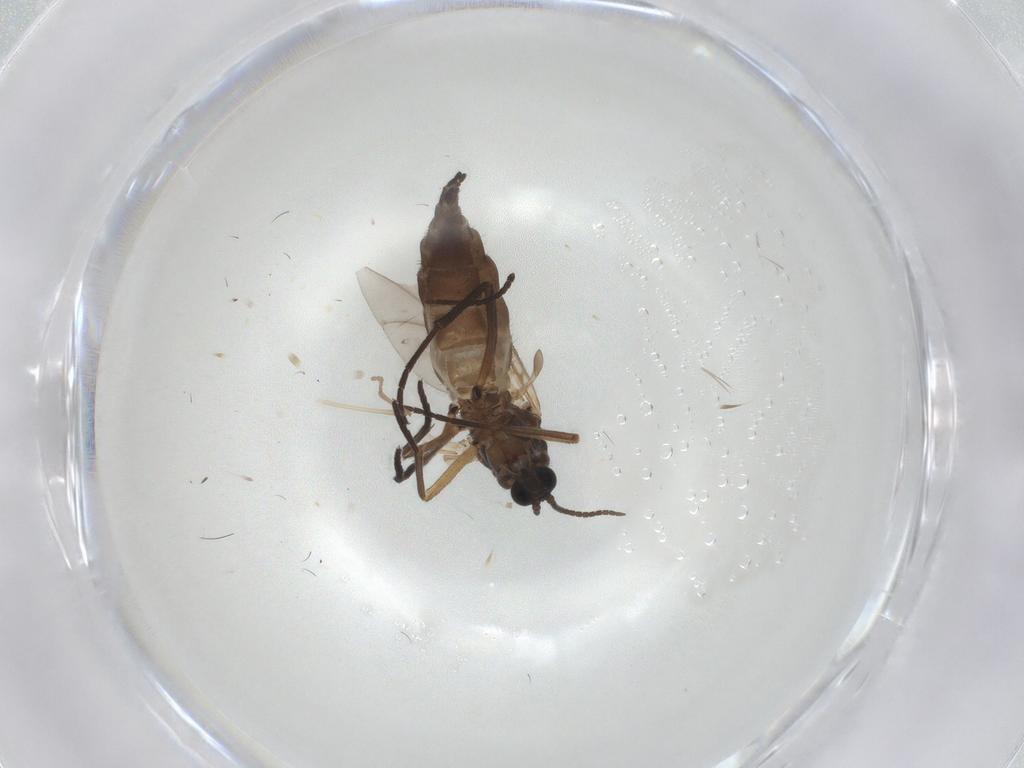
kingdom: Animalia
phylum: Arthropoda
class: Insecta
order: Diptera
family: Sciaridae
